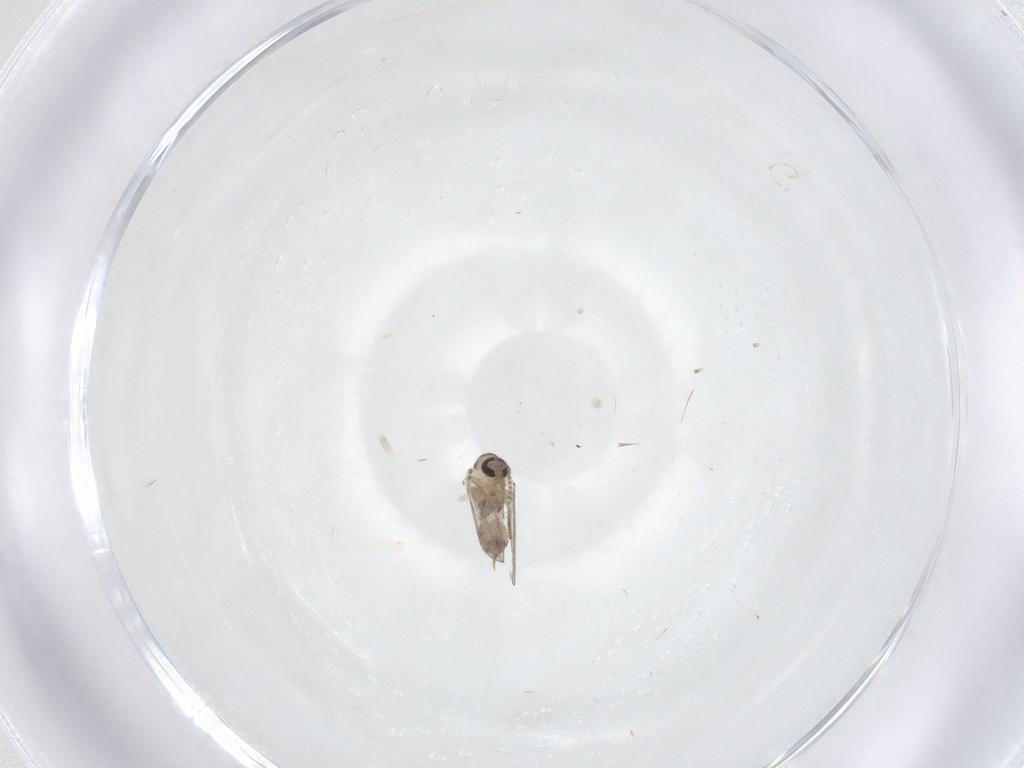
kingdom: Animalia
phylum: Arthropoda
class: Insecta
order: Diptera
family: Psychodidae
